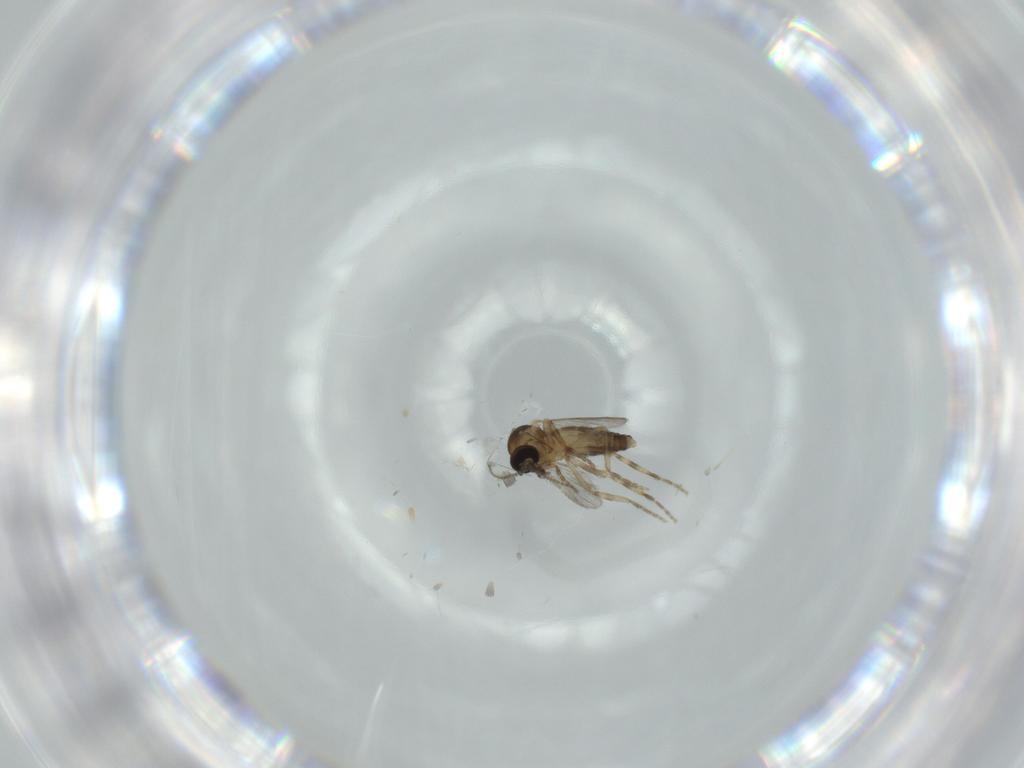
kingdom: Animalia
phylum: Arthropoda
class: Insecta
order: Diptera
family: Milichiidae
